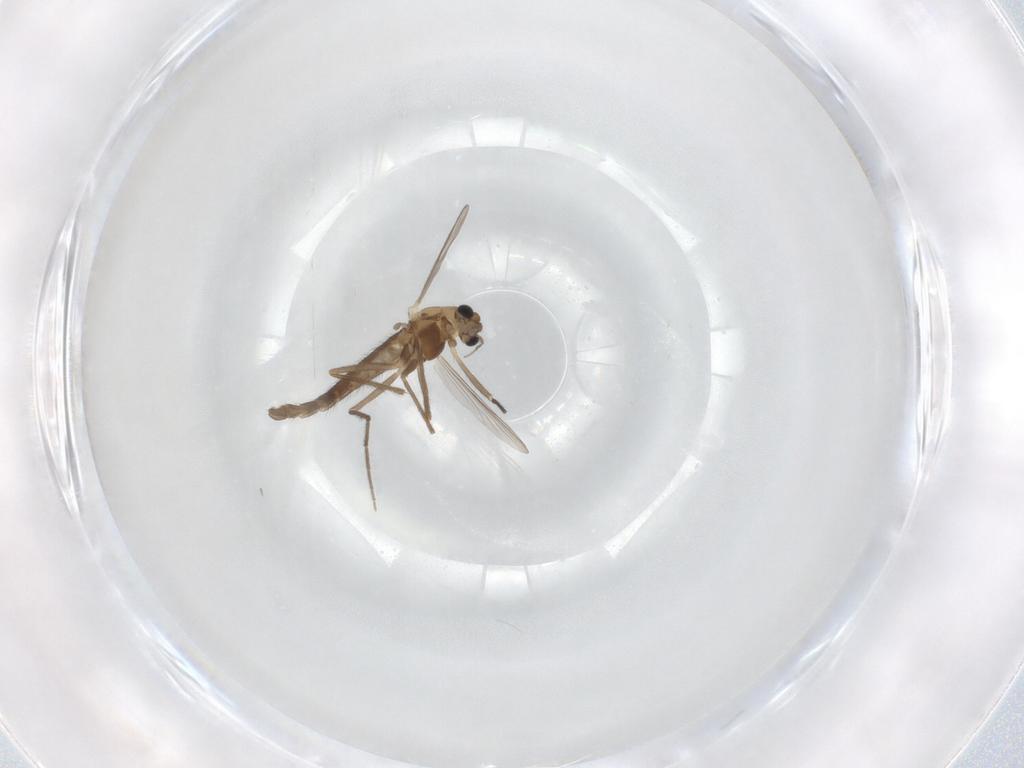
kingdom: Animalia
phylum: Arthropoda
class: Insecta
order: Diptera
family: Chironomidae
